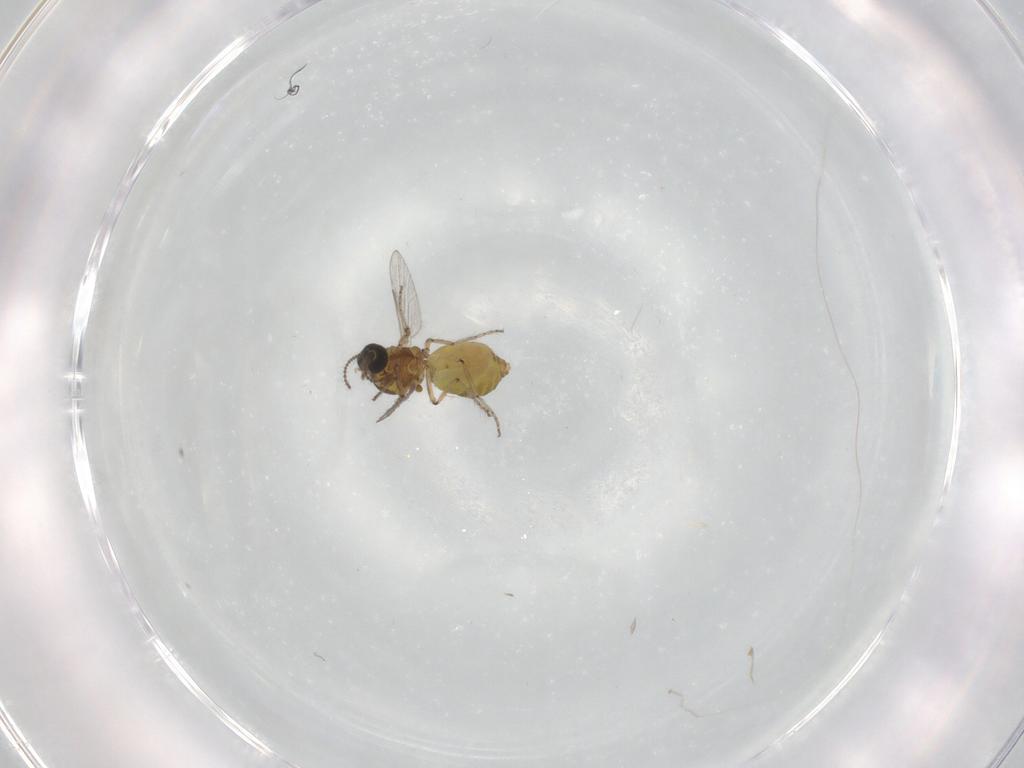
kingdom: Animalia
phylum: Arthropoda
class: Insecta
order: Diptera
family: Ceratopogonidae
